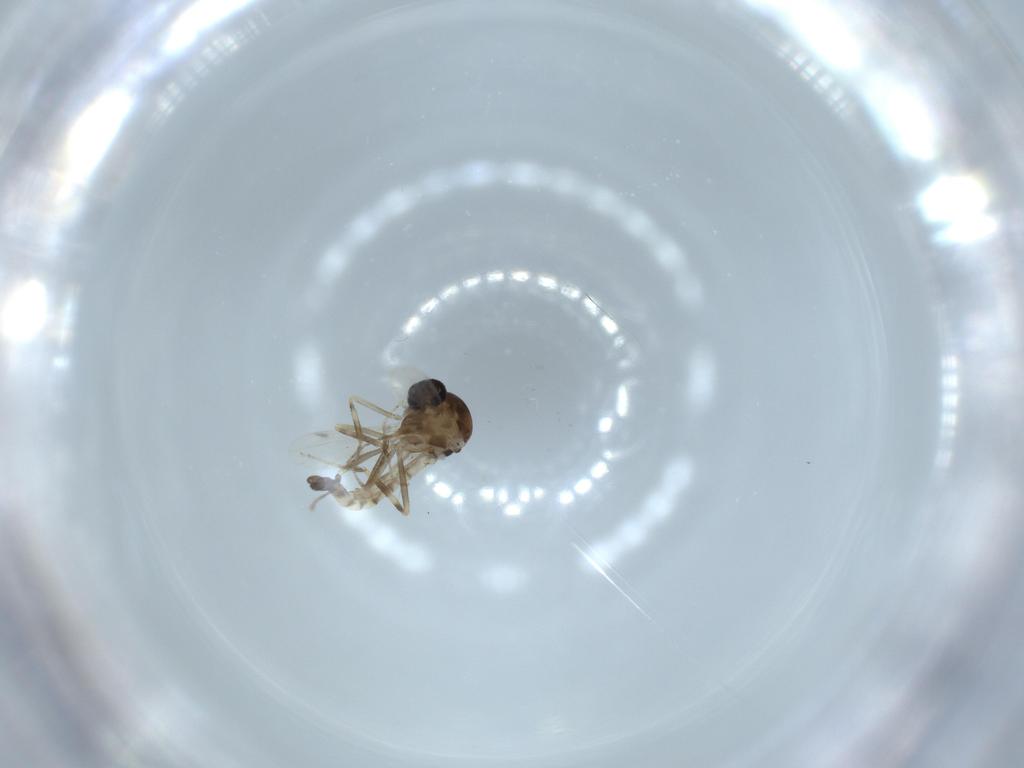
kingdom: Animalia
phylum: Arthropoda
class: Insecta
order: Diptera
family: Ceratopogonidae
